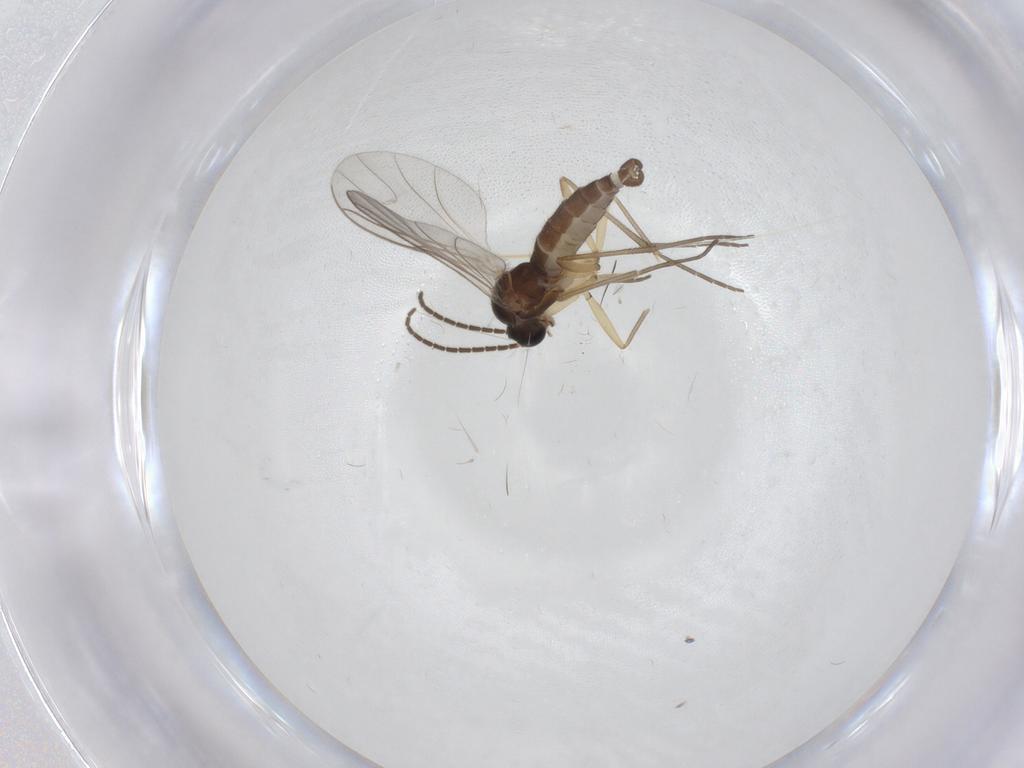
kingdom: Animalia
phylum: Arthropoda
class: Insecta
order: Diptera
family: Sciaridae
